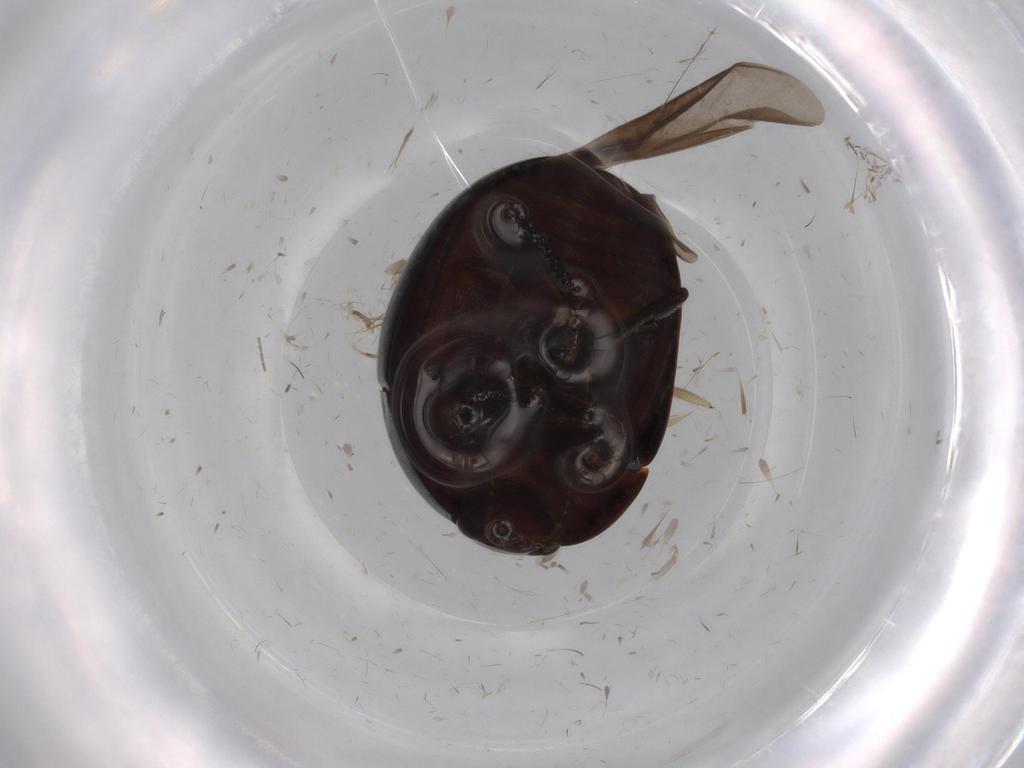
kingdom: Animalia
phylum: Arthropoda
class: Insecta
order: Coleoptera
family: Nitidulidae
